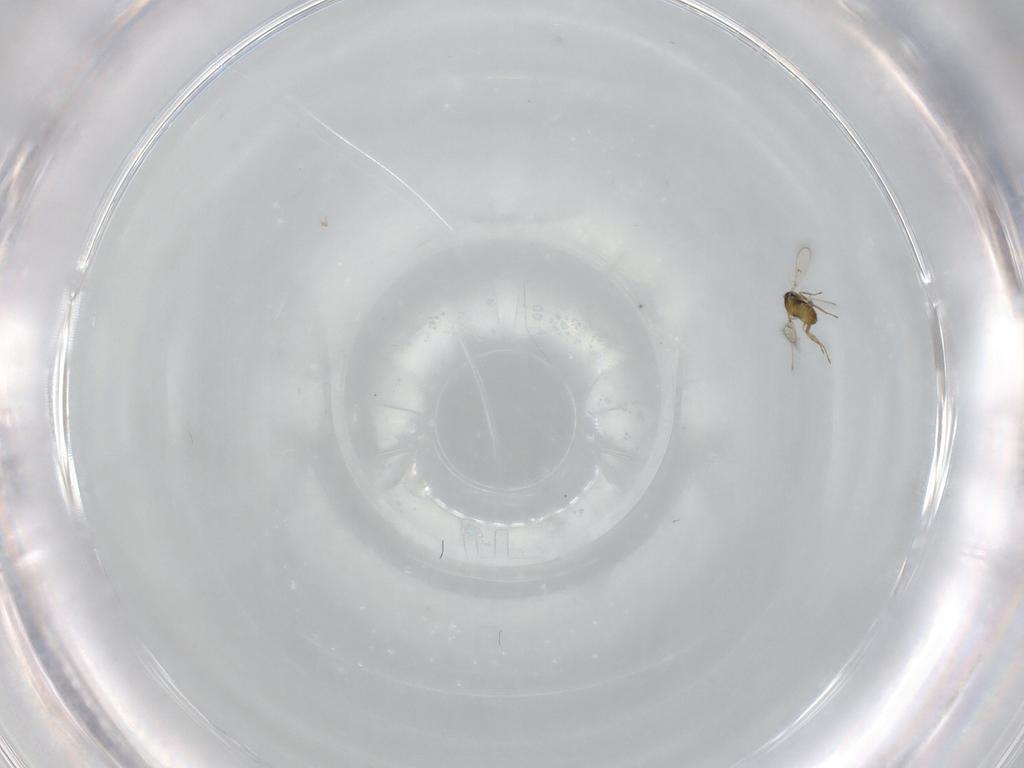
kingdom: Animalia
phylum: Arthropoda
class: Insecta
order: Hymenoptera
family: Trichogrammatidae
